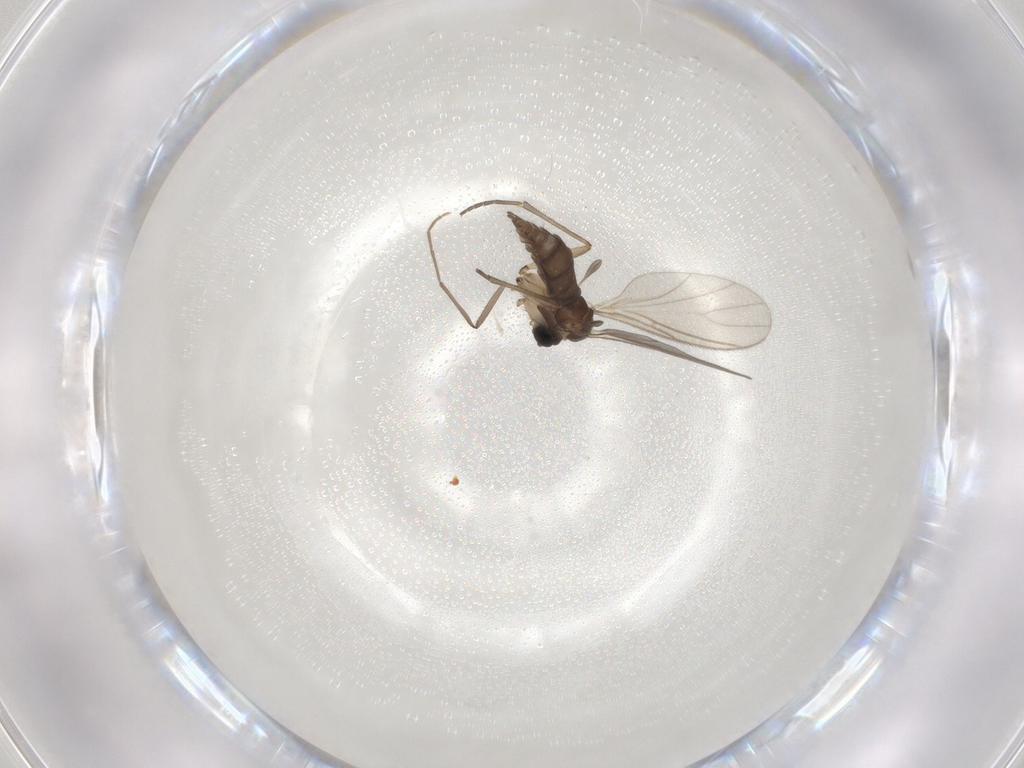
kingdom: Animalia
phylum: Arthropoda
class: Insecta
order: Diptera
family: Sciaridae
